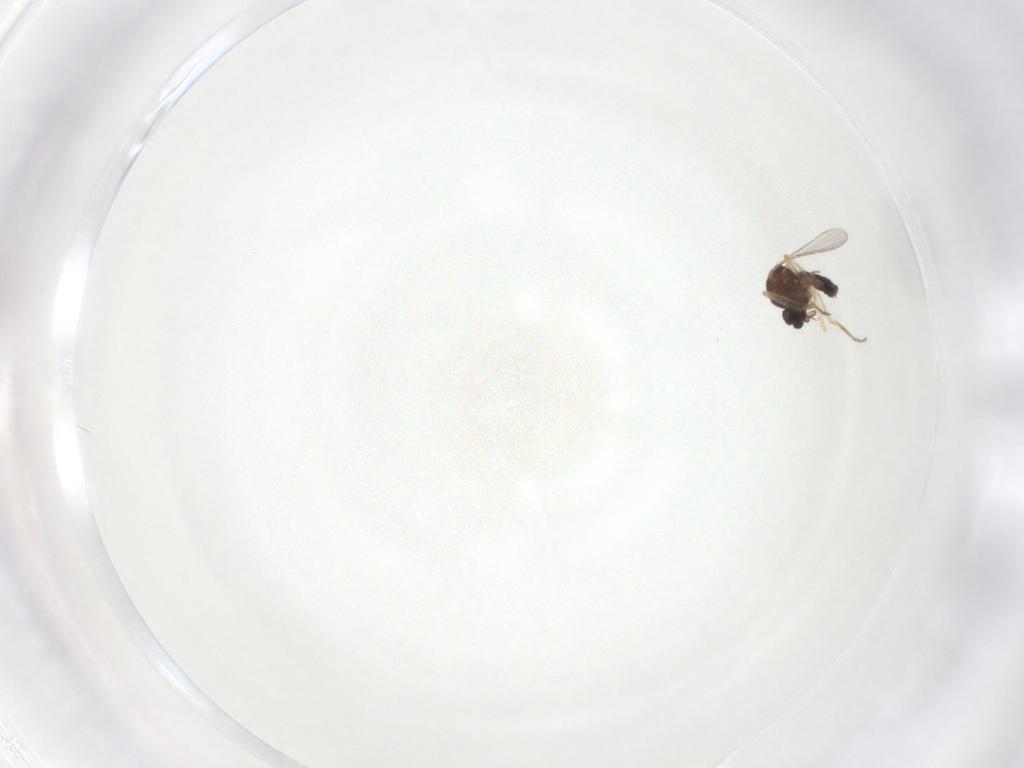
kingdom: Animalia
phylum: Arthropoda
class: Insecta
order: Diptera
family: Ceratopogonidae
